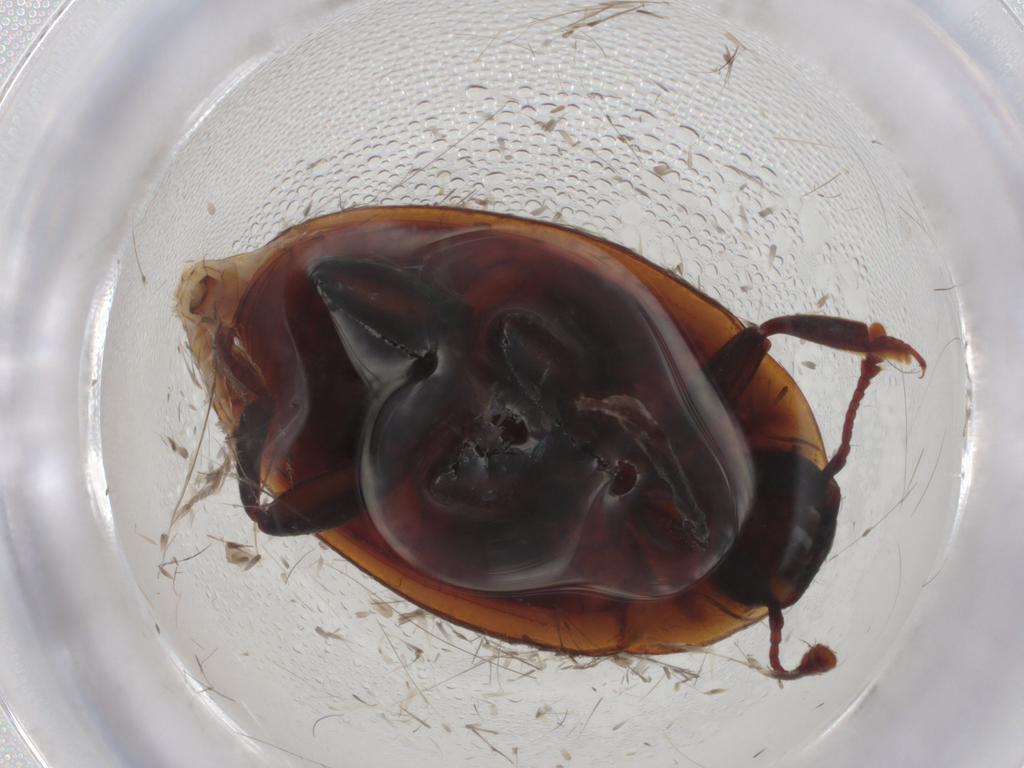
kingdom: Animalia
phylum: Arthropoda
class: Insecta
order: Coleoptera
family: Zopheridae
